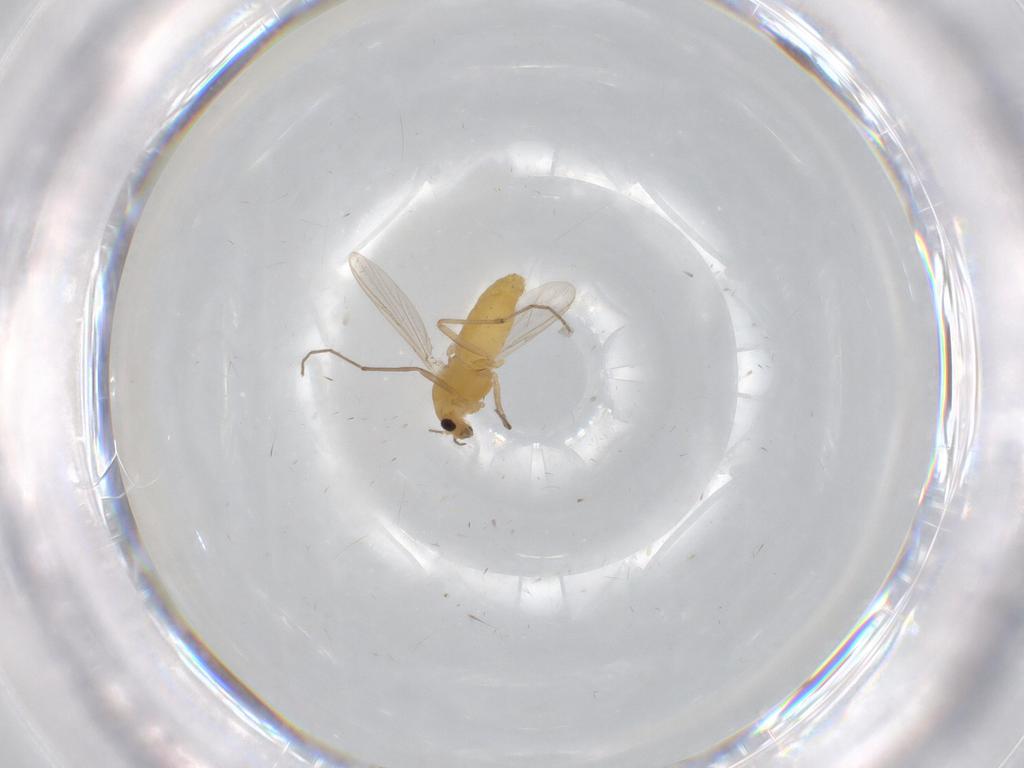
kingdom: Animalia
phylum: Arthropoda
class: Insecta
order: Diptera
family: Chironomidae
